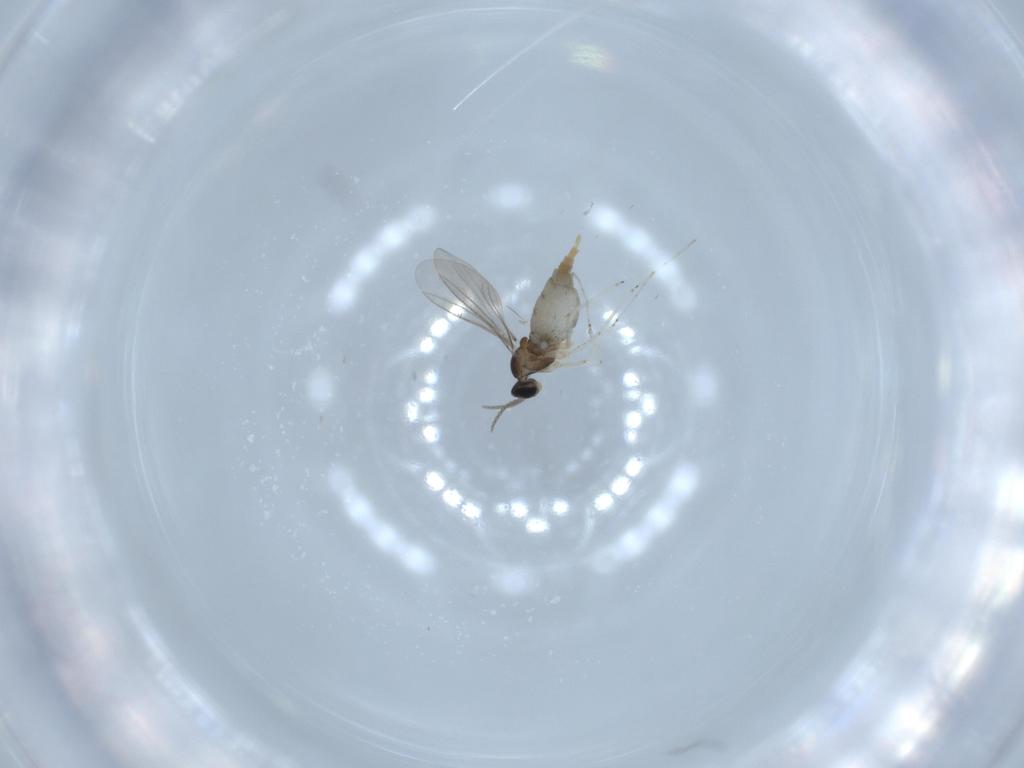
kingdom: Animalia
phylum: Arthropoda
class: Insecta
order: Diptera
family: Cecidomyiidae
